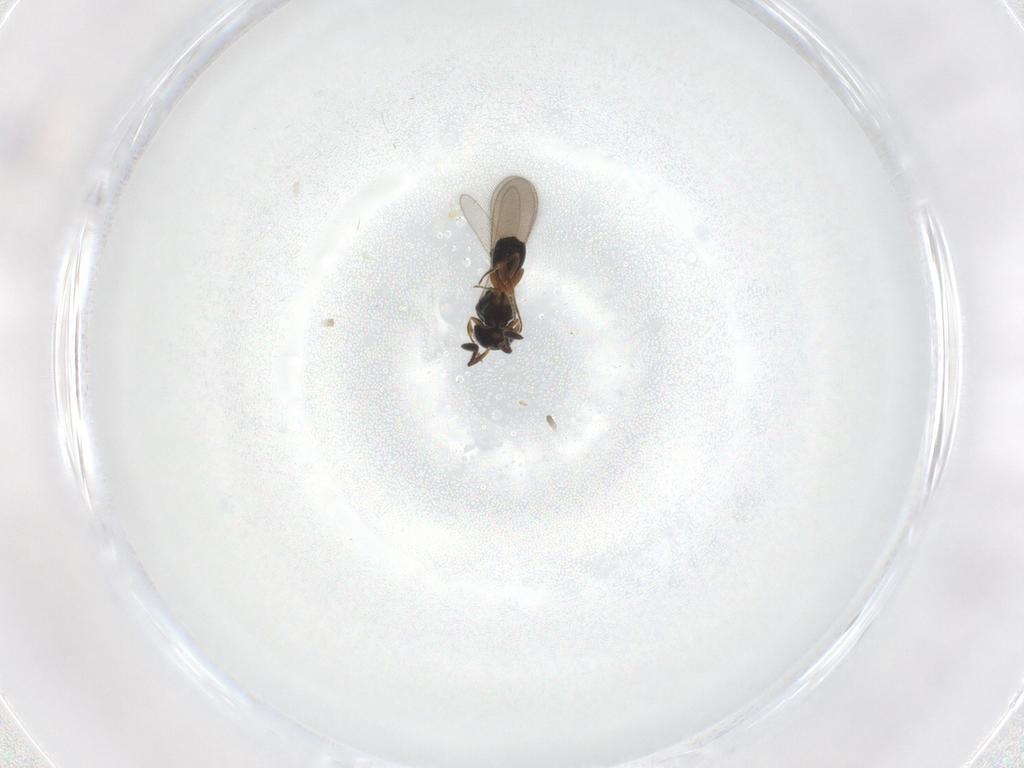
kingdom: Animalia
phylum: Arthropoda
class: Insecta
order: Hymenoptera
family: Scelionidae
